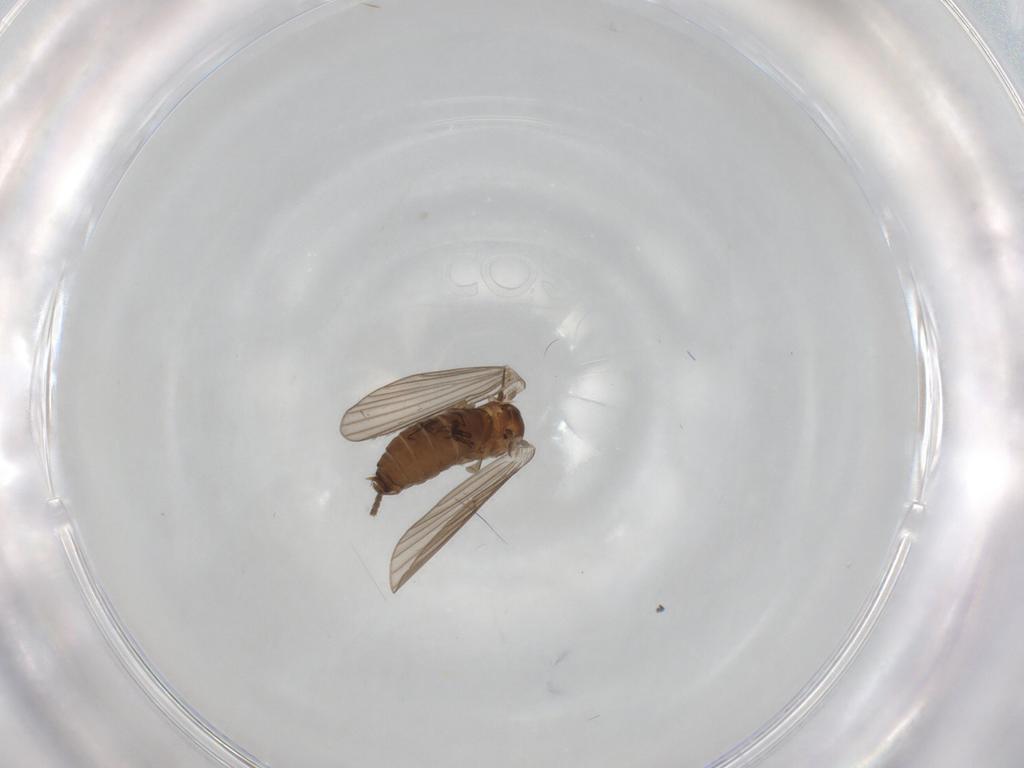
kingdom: Animalia
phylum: Arthropoda
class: Insecta
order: Diptera
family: Psychodidae
